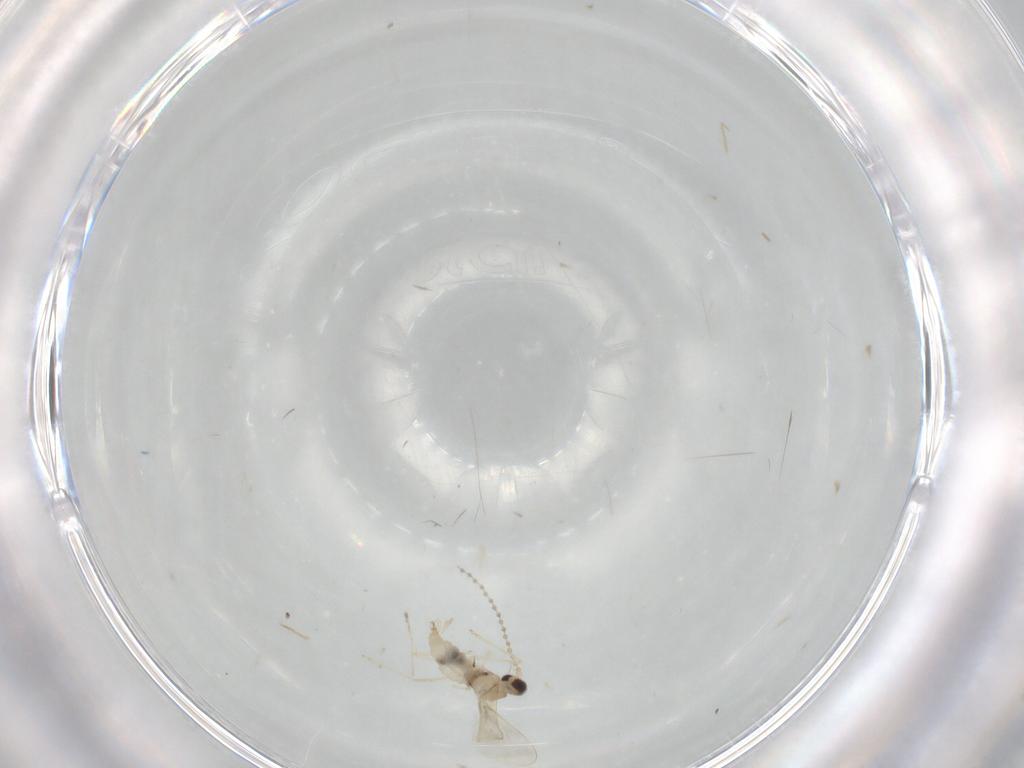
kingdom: Animalia
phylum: Arthropoda
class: Insecta
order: Diptera
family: Cecidomyiidae
